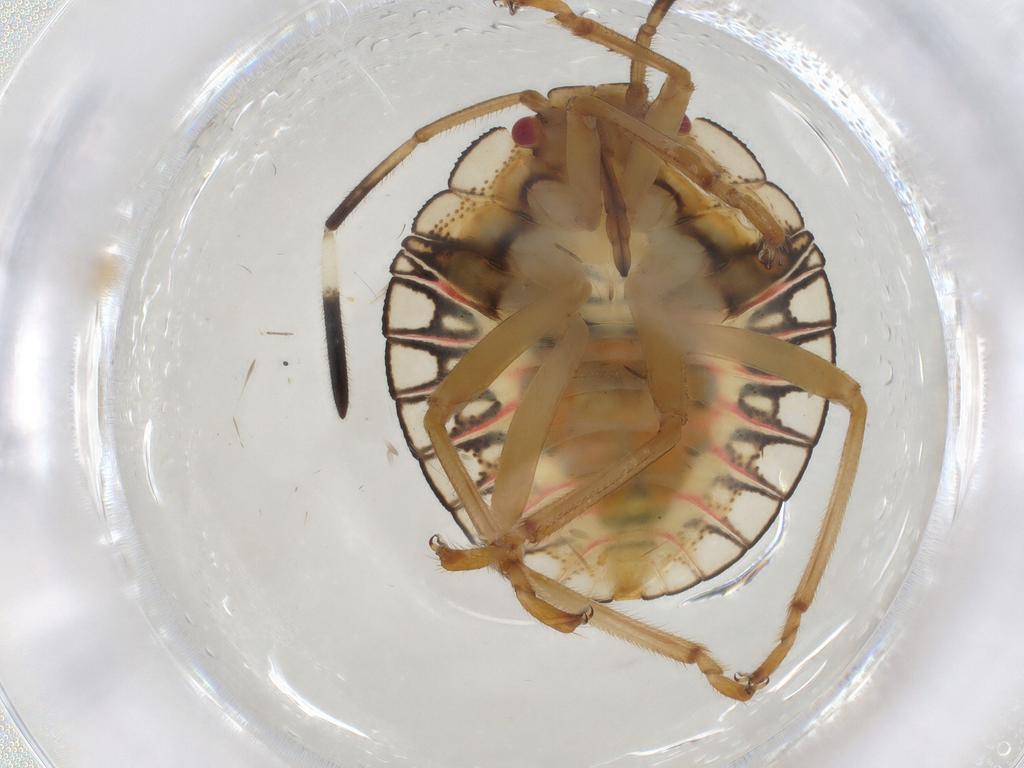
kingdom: Animalia
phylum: Arthropoda
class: Insecta
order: Hemiptera
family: Pentatomidae
